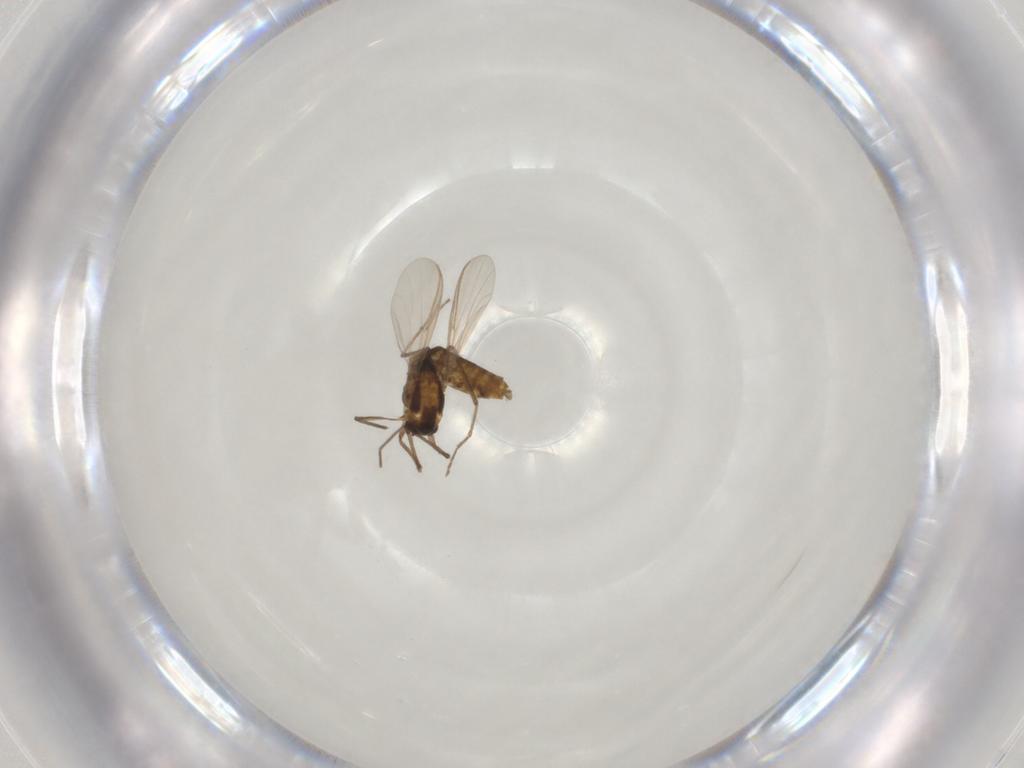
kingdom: Animalia
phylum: Arthropoda
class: Insecta
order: Diptera
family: Chironomidae
